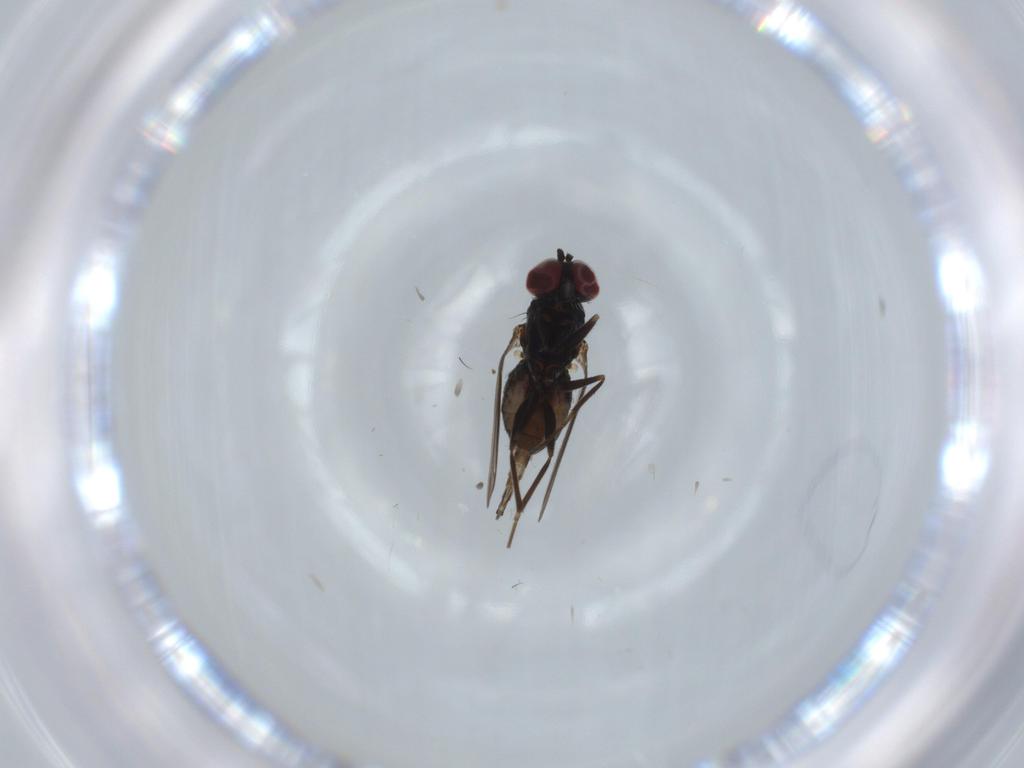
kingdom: Animalia
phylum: Arthropoda
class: Insecta
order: Diptera
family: Dolichopodidae
